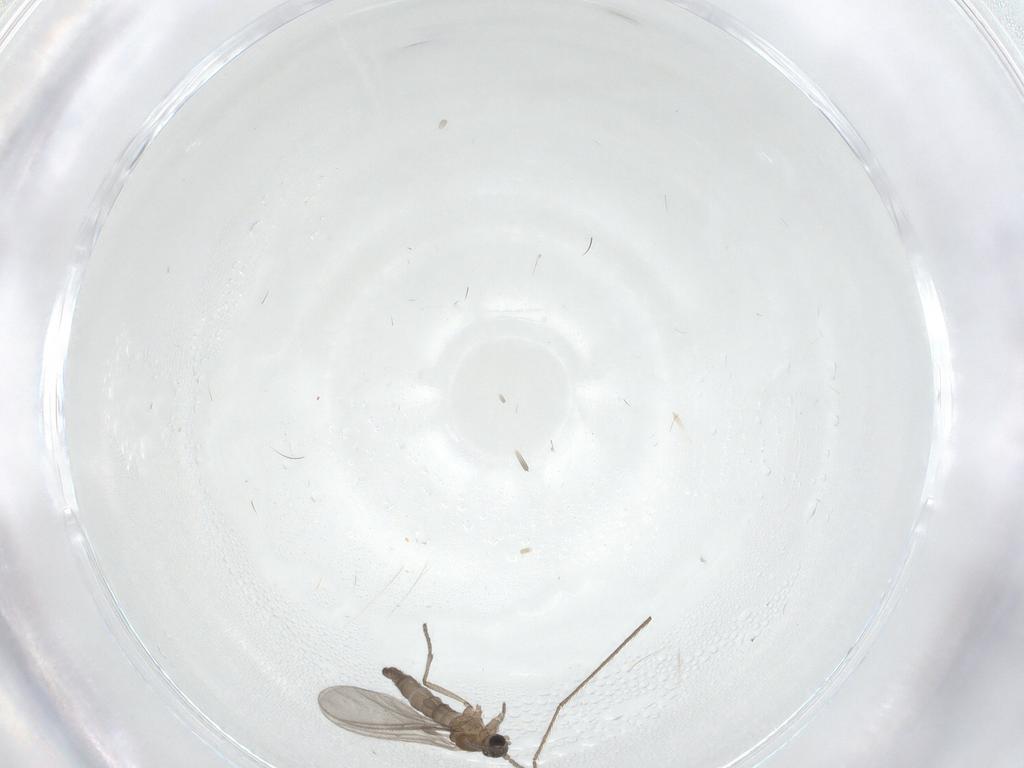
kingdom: Animalia
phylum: Arthropoda
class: Insecta
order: Diptera
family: Sciaridae
